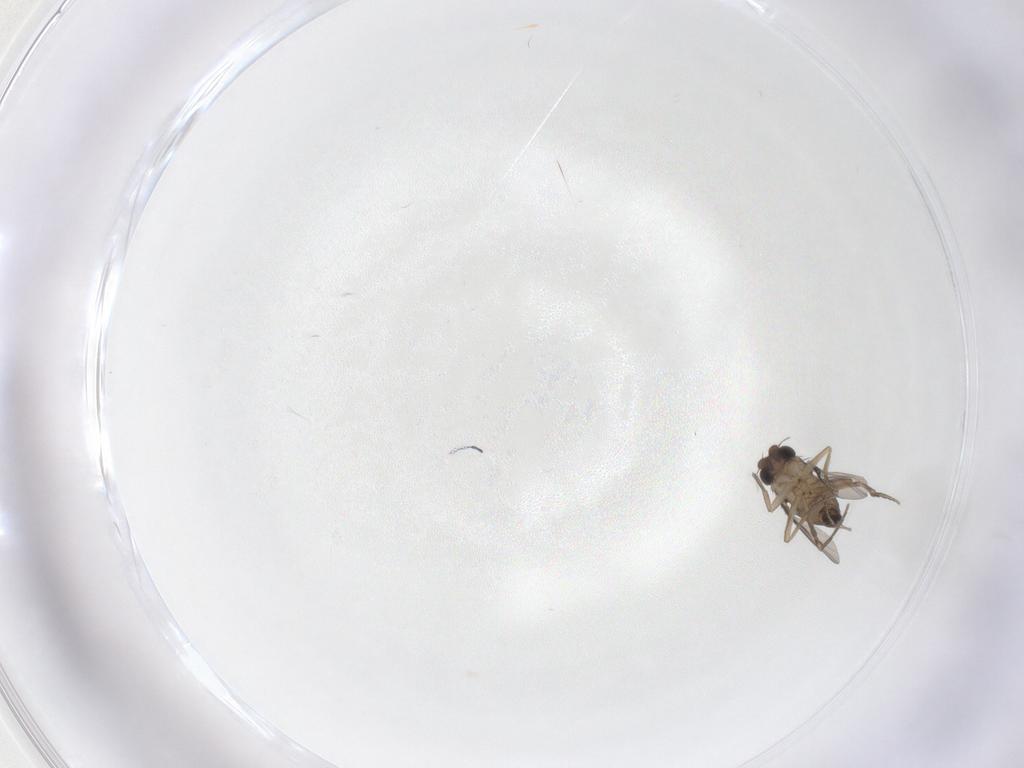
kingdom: Animalia
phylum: Arthropoda
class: Insecta
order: Diptera
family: Phoridae
